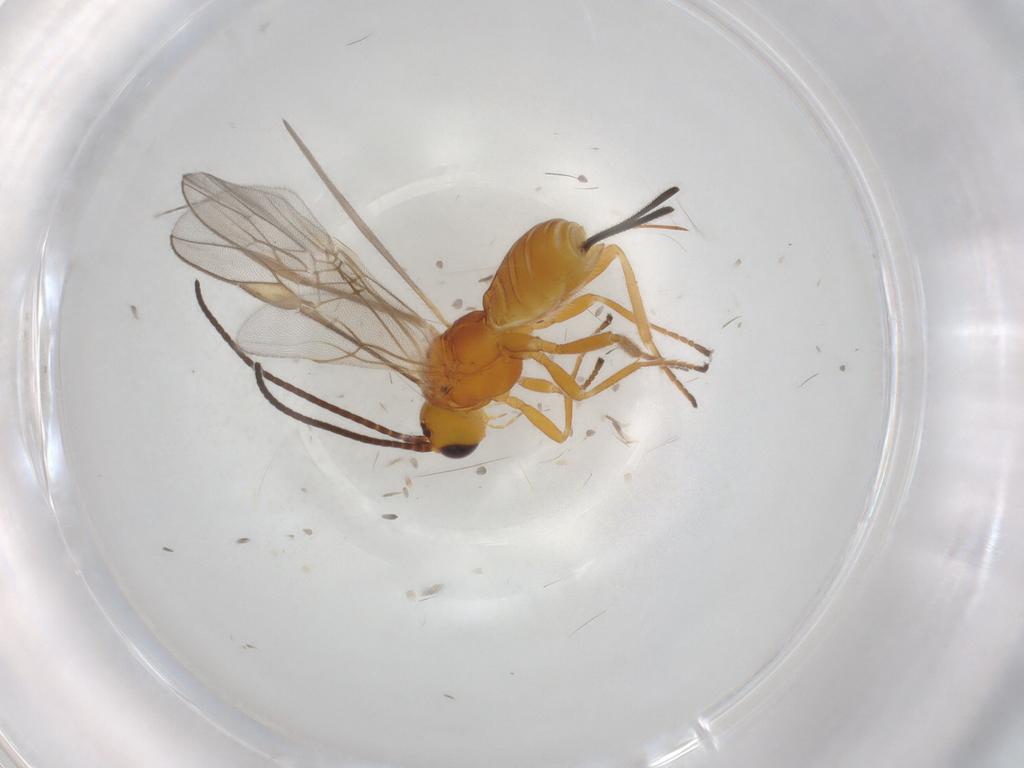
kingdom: Animalia
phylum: Arthropoda
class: Insecta
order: Hymenoptera
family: Braconidae
